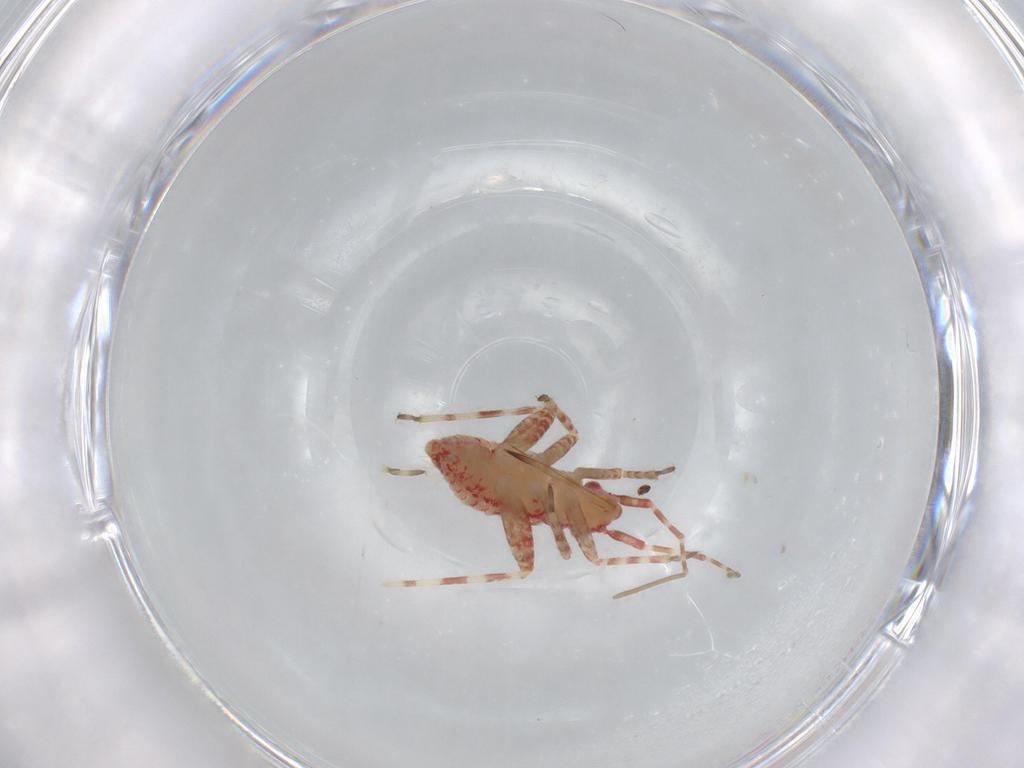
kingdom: Animalia
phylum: Arthropoda
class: Insecta
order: Hemiptera
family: Miridae
